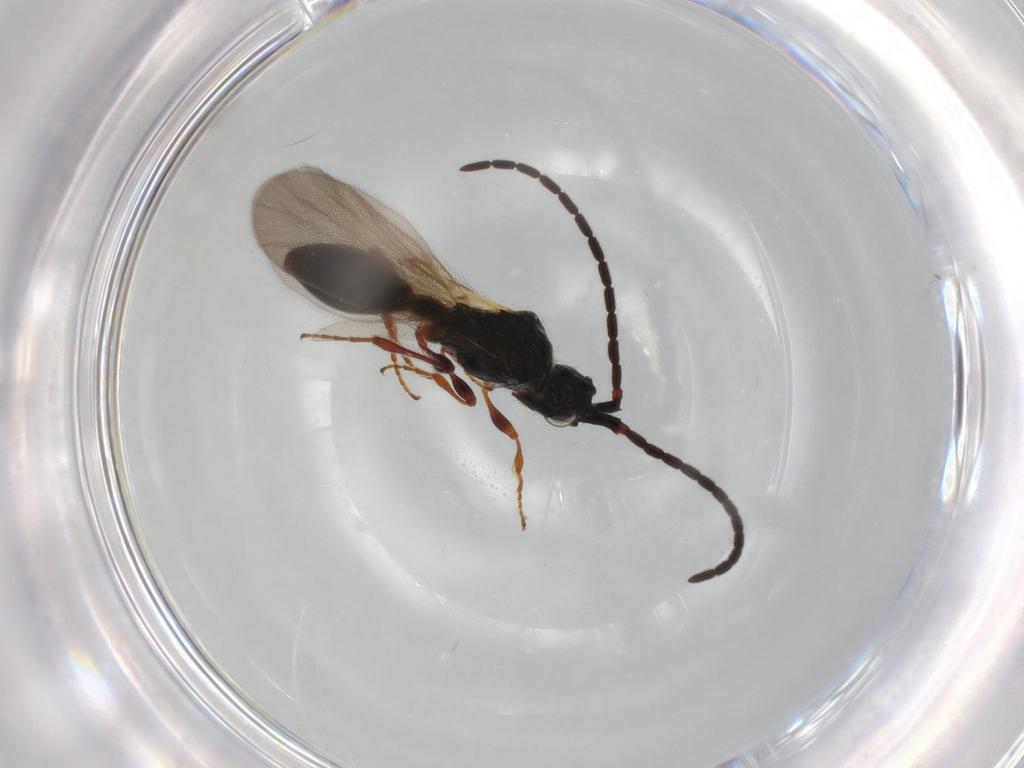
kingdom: Animalia
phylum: Arthropoda
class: Insecta
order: Hymenoptera
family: Diapriidae
